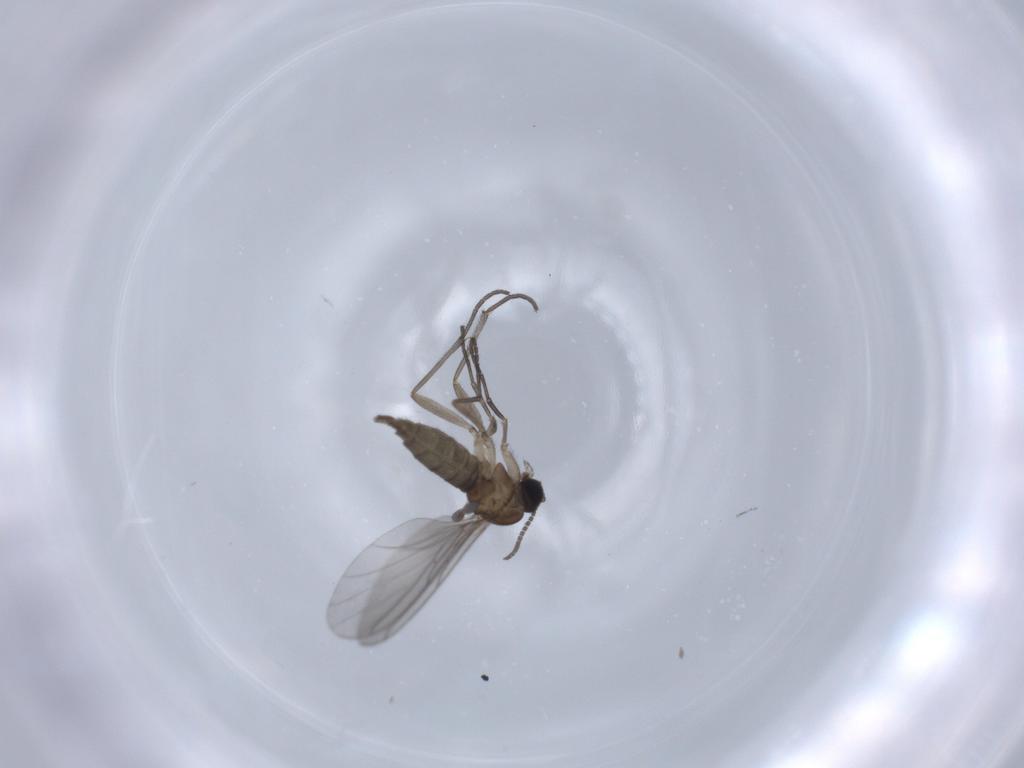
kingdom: Animalia
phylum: Arthropoda
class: Insecta
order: Diptera
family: Sciaridae
